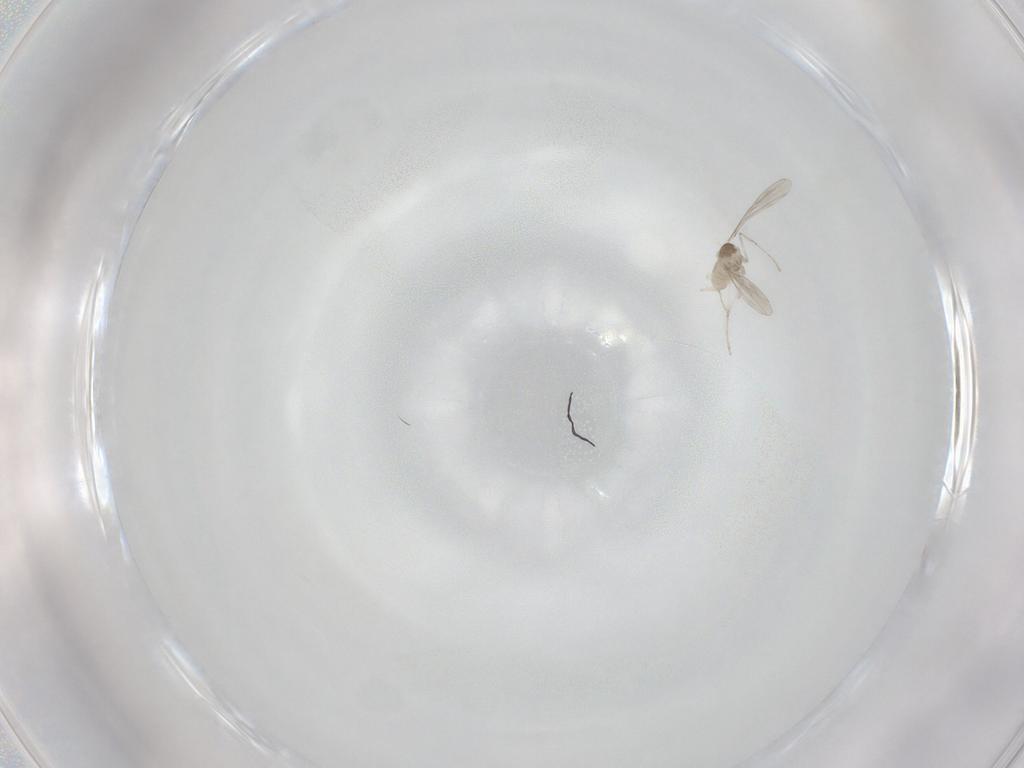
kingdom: Animalia
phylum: Arthropoda
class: Insecta
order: Diptera
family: Cecidomyiidae
